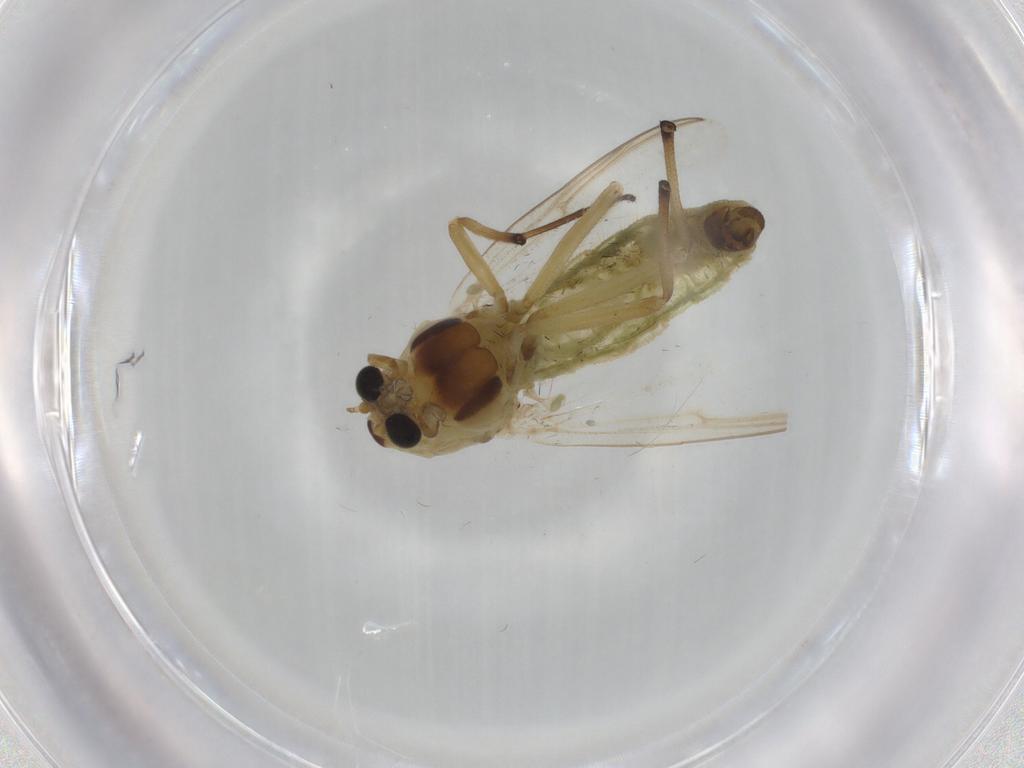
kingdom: Animalia
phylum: Arthropoda
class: Insecta
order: Diptera
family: Chironomidae
